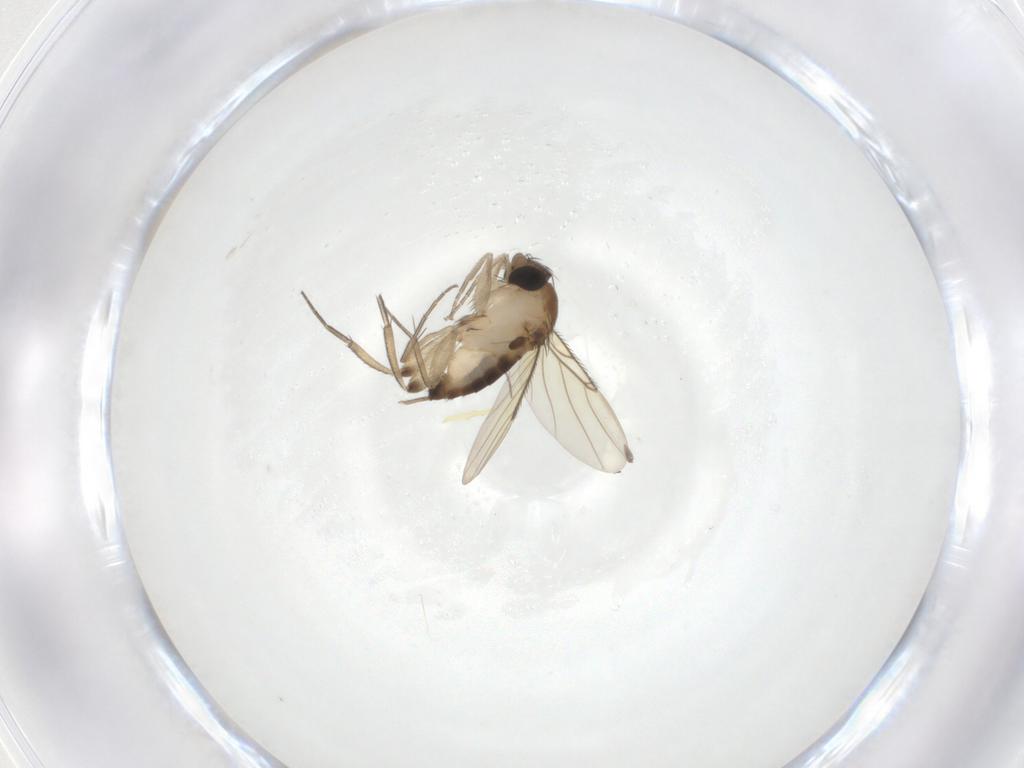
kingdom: Animalia
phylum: Arthropoda
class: Insecta
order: Diptera
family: Phoridae
